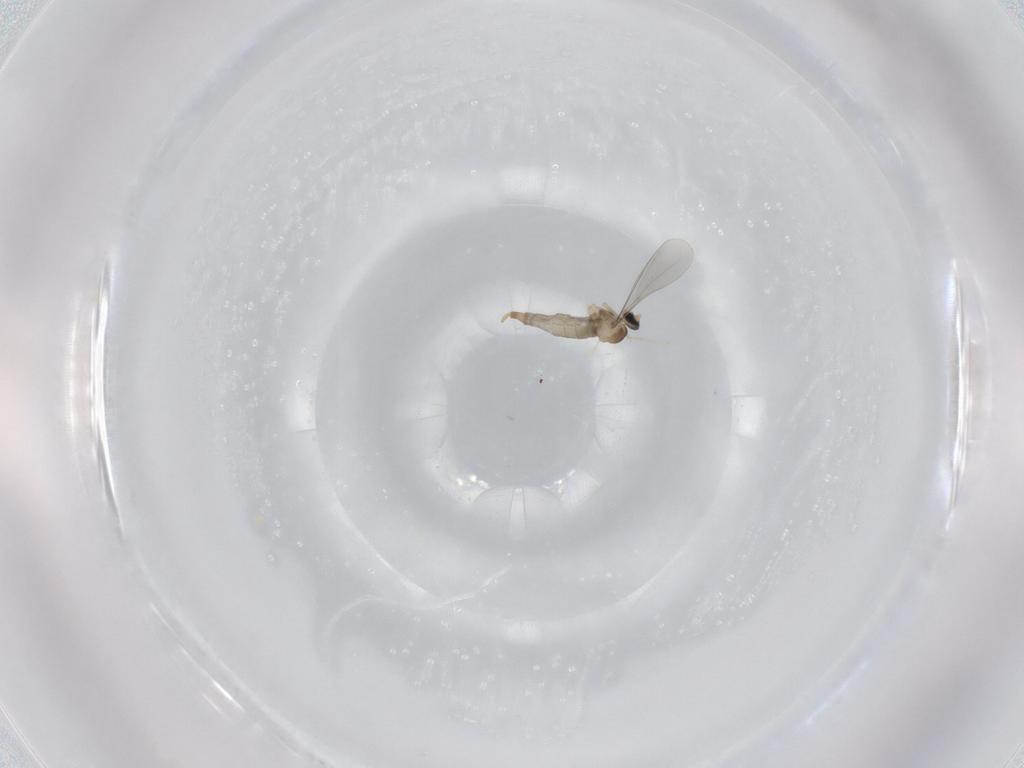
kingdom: Animalia
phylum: Arthropoda
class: Insecta
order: Diptera
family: Cecidomyiidae
